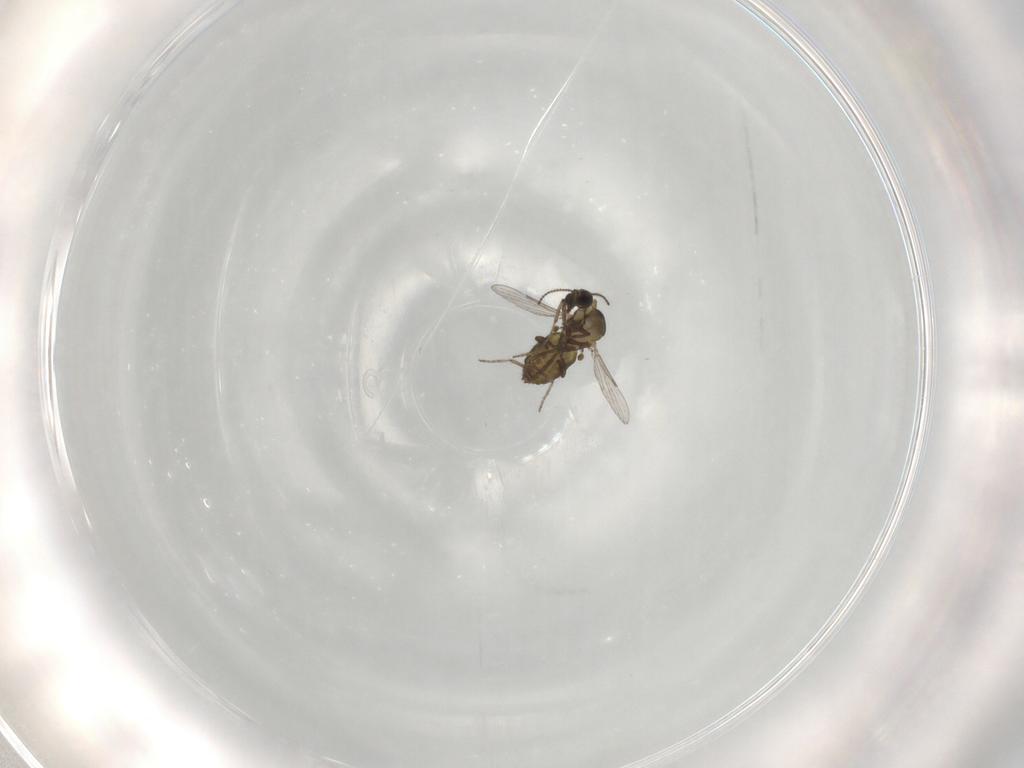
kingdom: Animalia
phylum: Arthropoda
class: Insecta
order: Diptera
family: Ceratopogonidae
